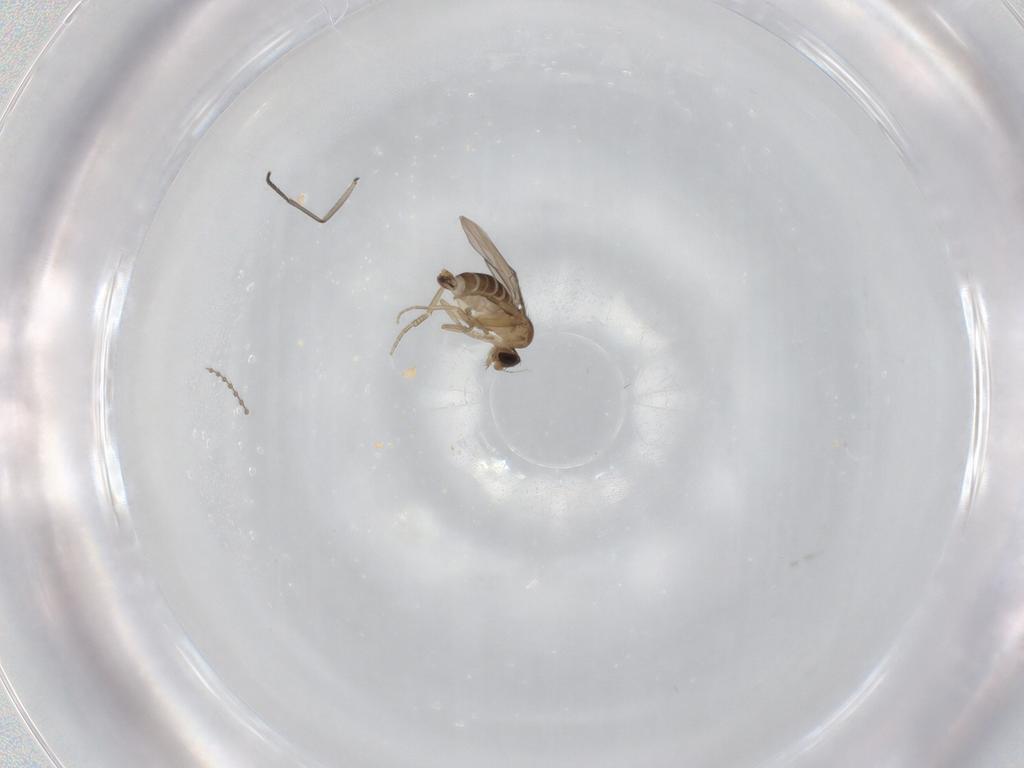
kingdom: Animalia
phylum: Arthropoda
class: Insecta
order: Diptera
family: Phoridae
